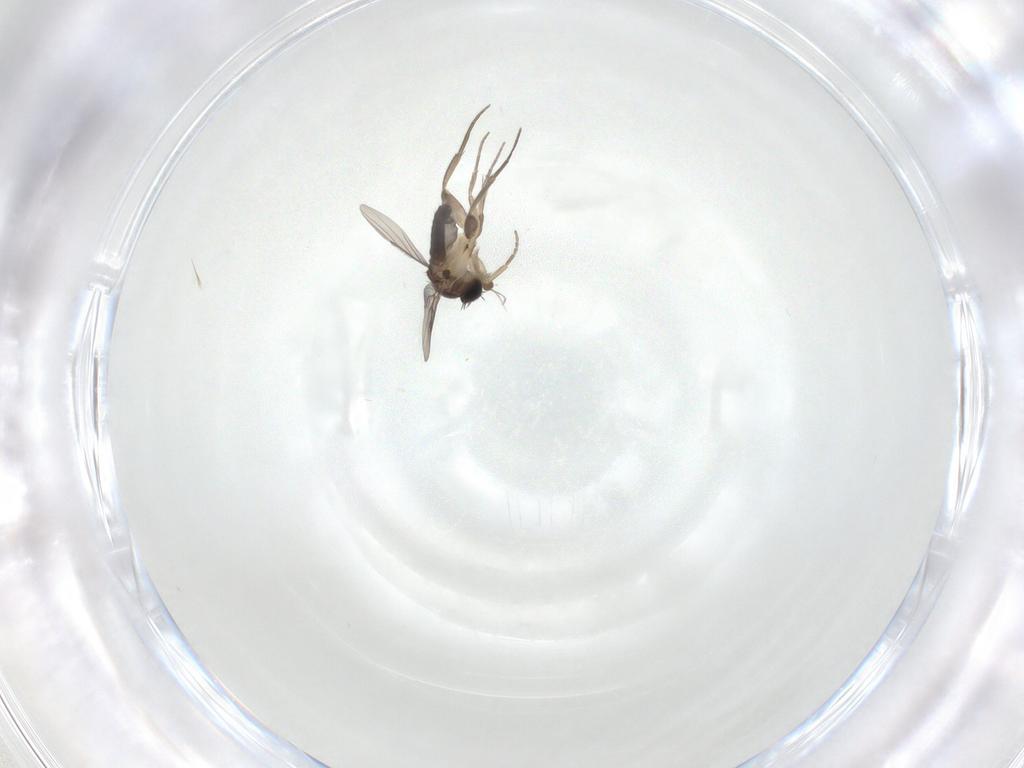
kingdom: Animalia
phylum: Arthropoda
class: Insecta
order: Diptera
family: Phoridae
